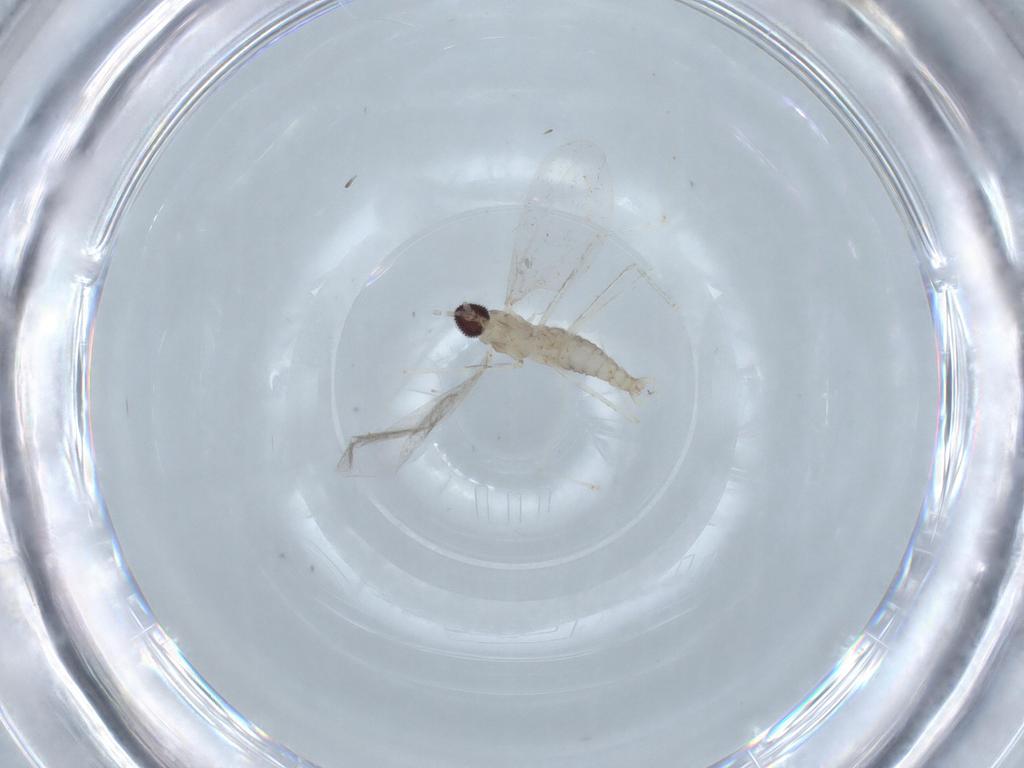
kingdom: Animalia
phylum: Arthropoda
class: Insecta
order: Diptera
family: Cecidomyiidae
